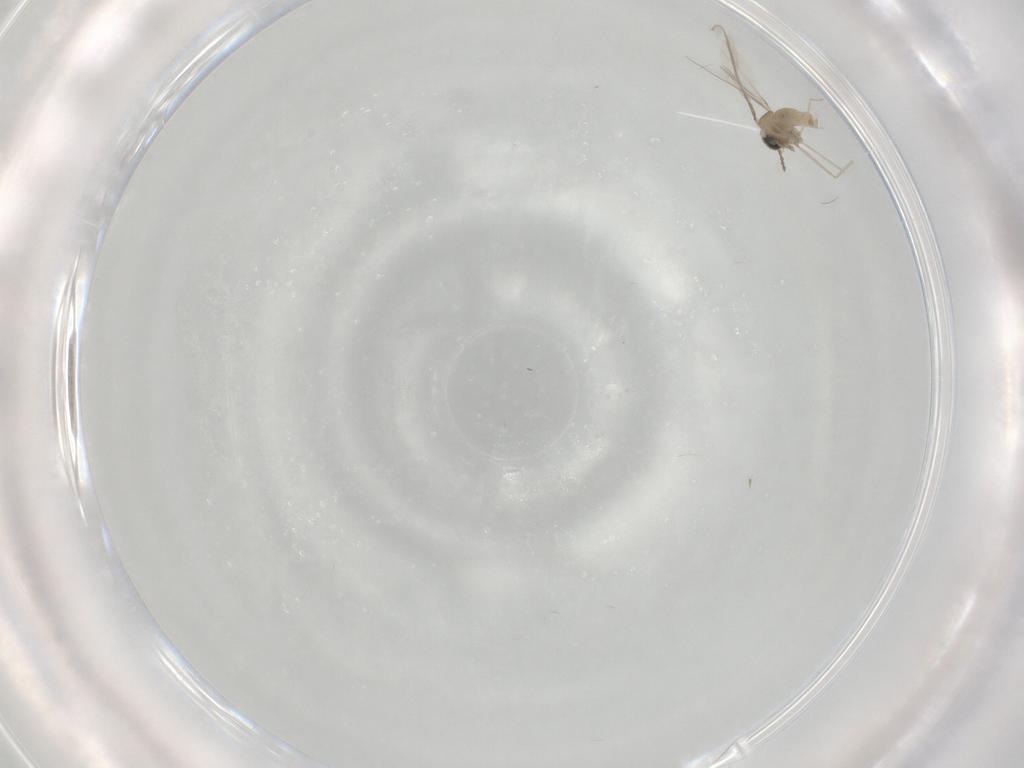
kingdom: Animalia
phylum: Arthropoda
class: Insecta
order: Diptera
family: Cecidomyiidae
